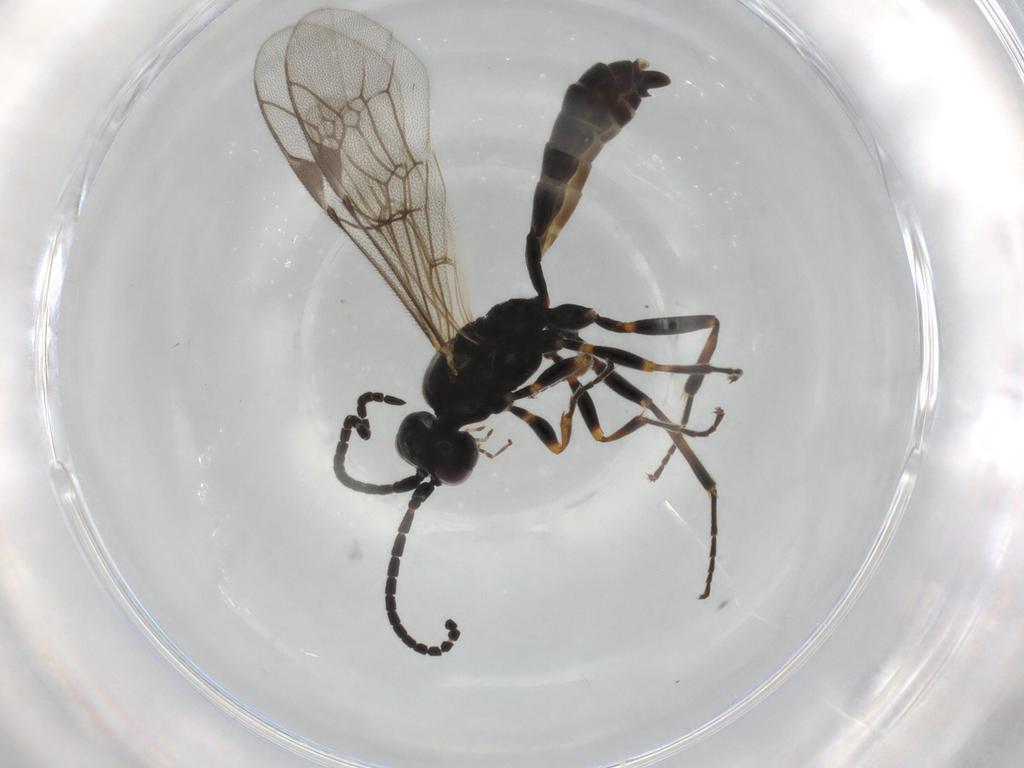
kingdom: Animalia
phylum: Arthropoda
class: Insecta
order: Hymenoptera
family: Ichneumonidae
